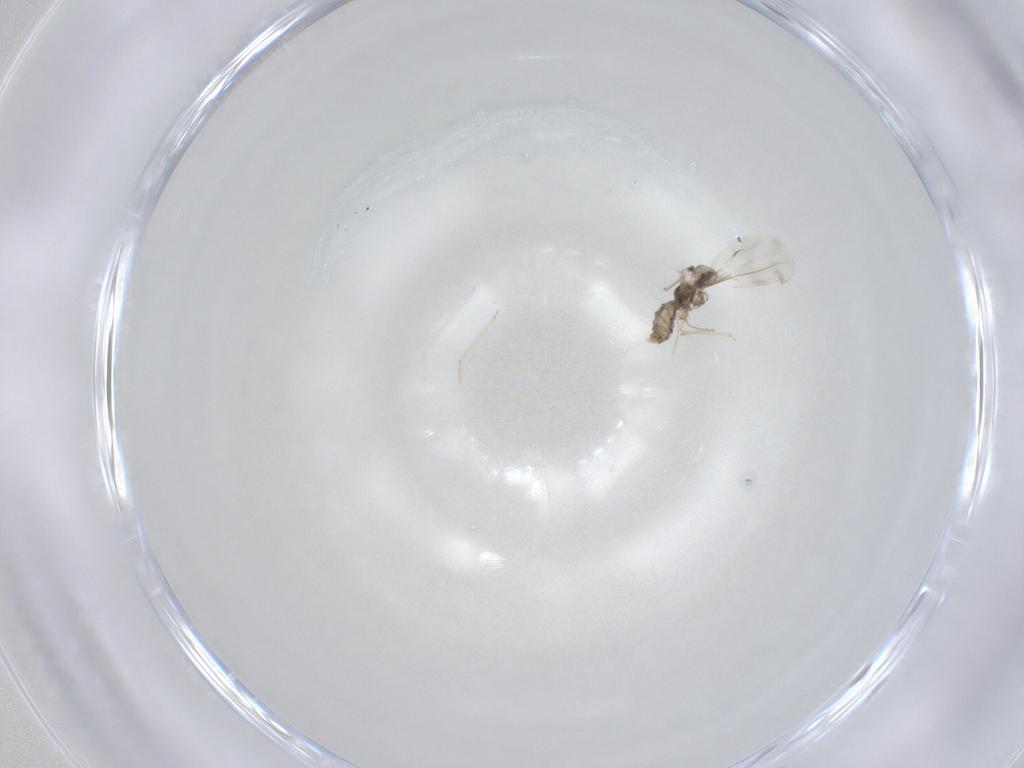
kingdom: Animalia
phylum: Arthropoda
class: Insecta
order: Diptera
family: Cecidomyiidae
